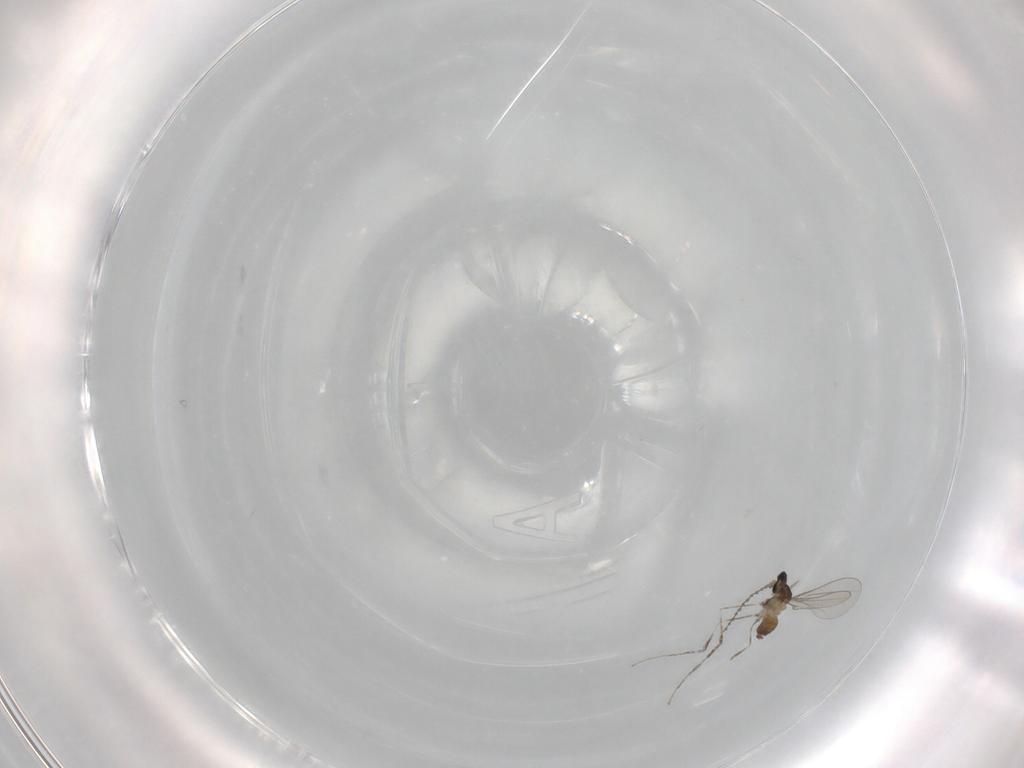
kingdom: Animalia
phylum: Arthropoda
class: Insecta
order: Diptera
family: Cecidomyiidae
